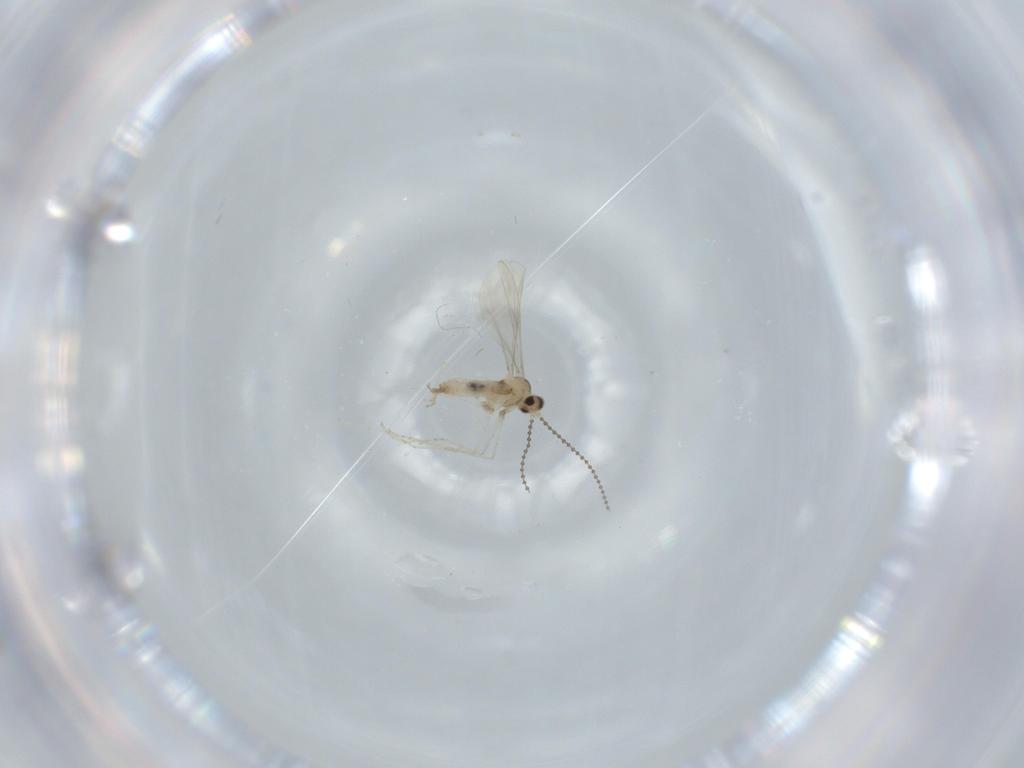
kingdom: Animalia
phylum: Arthropoda
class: Insecta
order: Diptera
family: Cecidomyiidae
